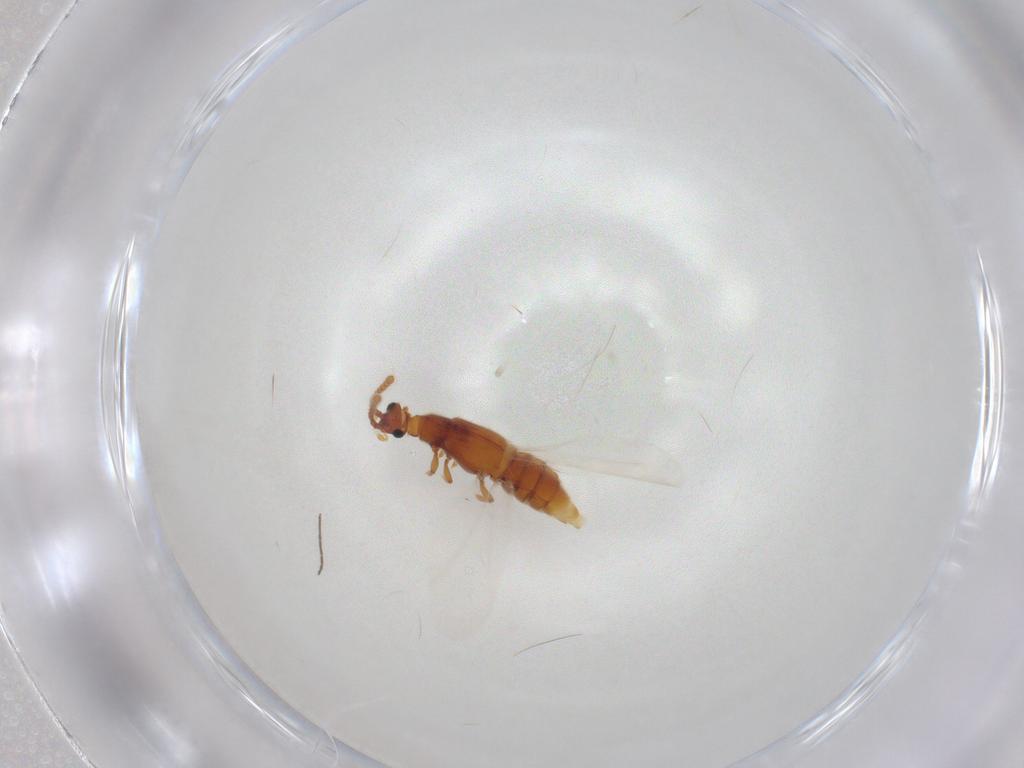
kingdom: Animalia
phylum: Arthropoda
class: Insecta
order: Coleoptera
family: Staphylinidae
